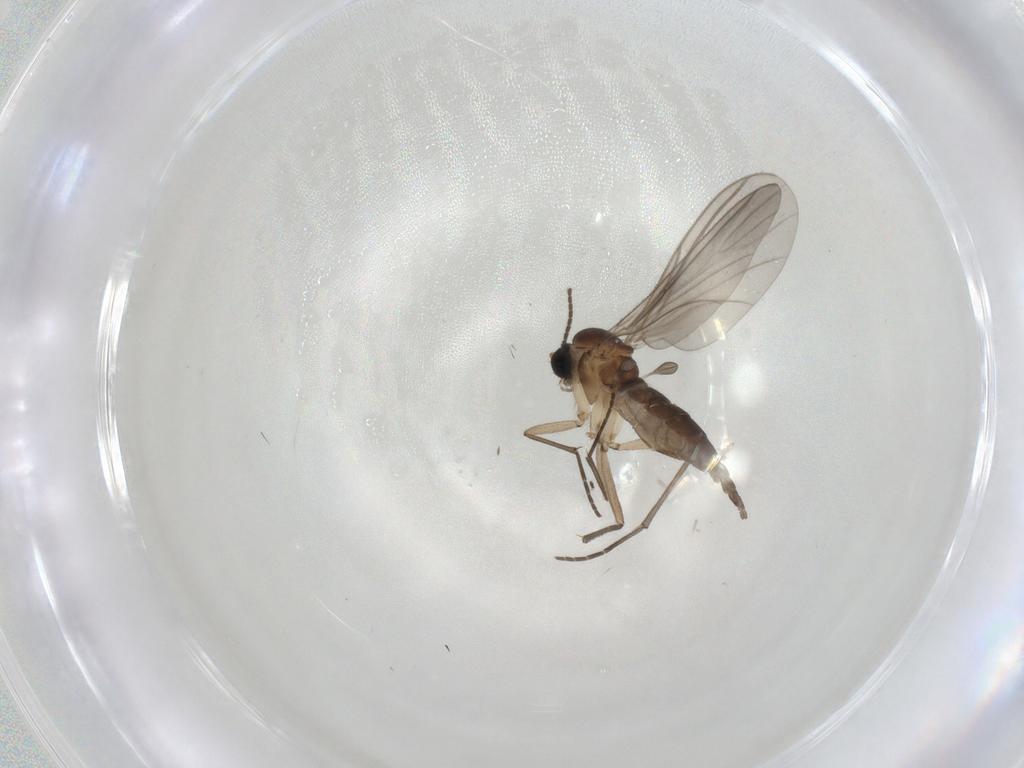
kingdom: Animalia
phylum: Arthropoda
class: Insecta
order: Diptera
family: Sciaridae
